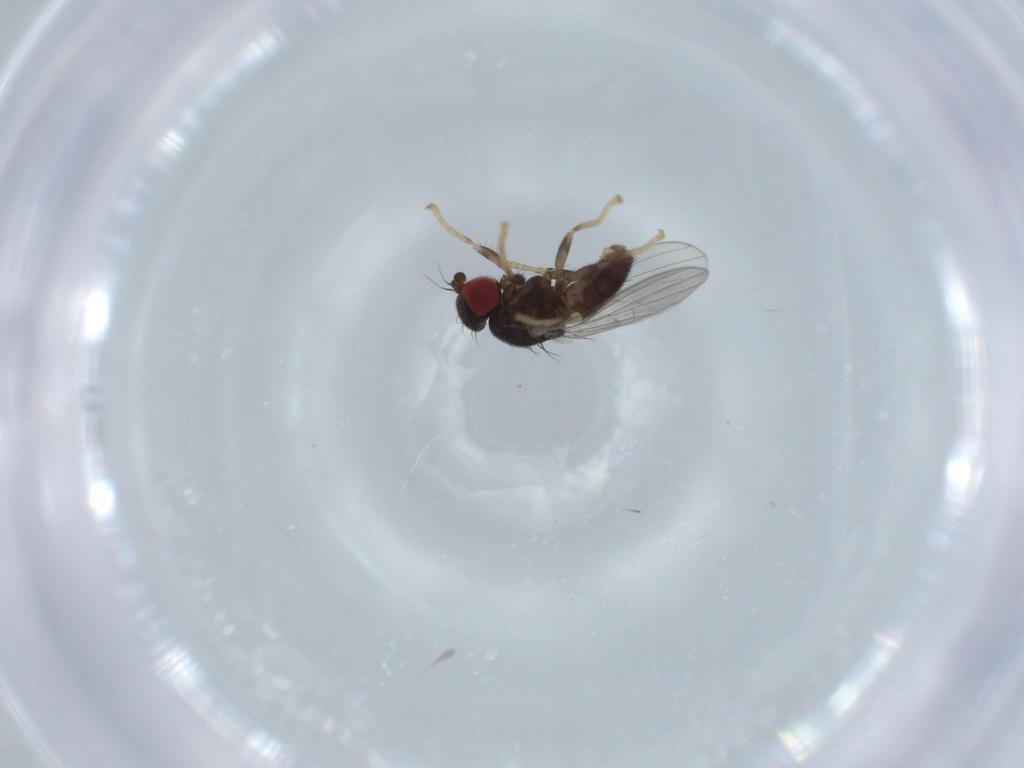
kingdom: Animalia
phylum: Arthropoda
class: Insecta
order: Diptera
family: Chamaemyiidae
